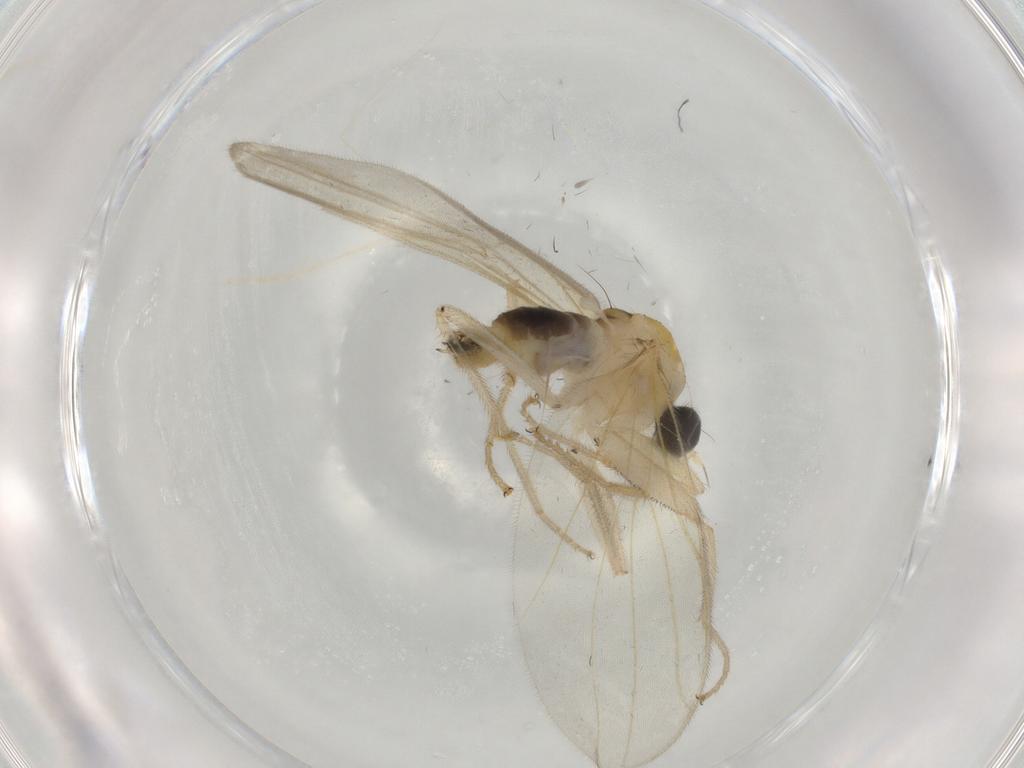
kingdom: Animalia
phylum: Arthropoda
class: Insecta
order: Diptera
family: Hybotidae
